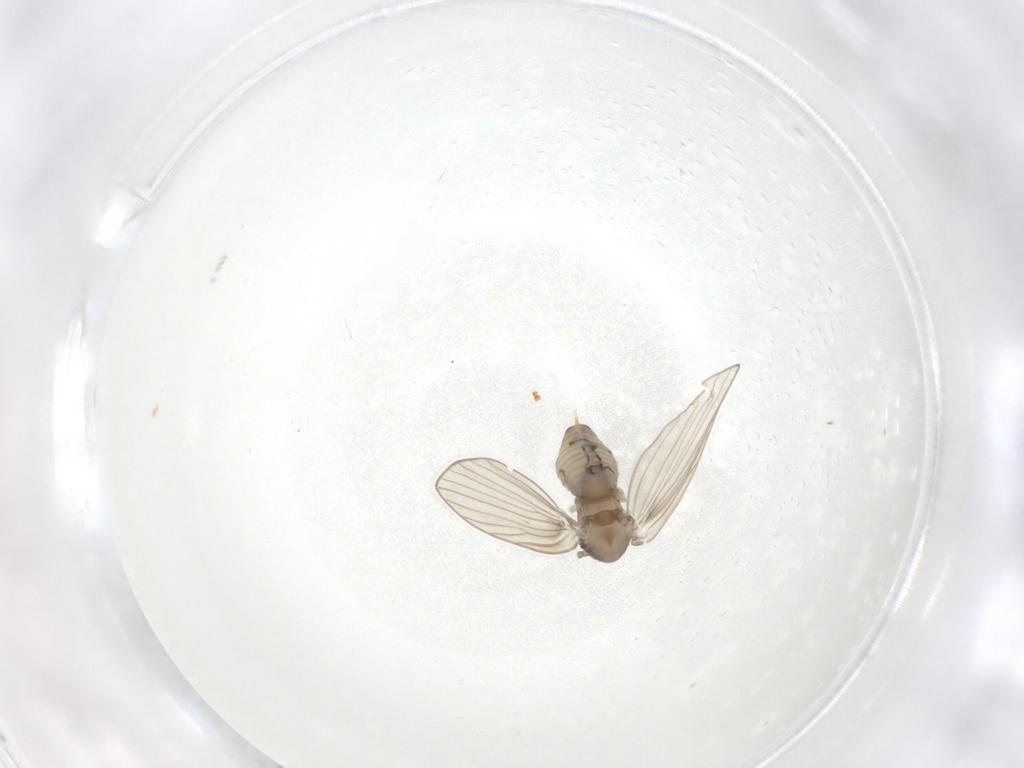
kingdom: Animalia
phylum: Arthropoda
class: Insecta
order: Diptera
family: Psychodidae
